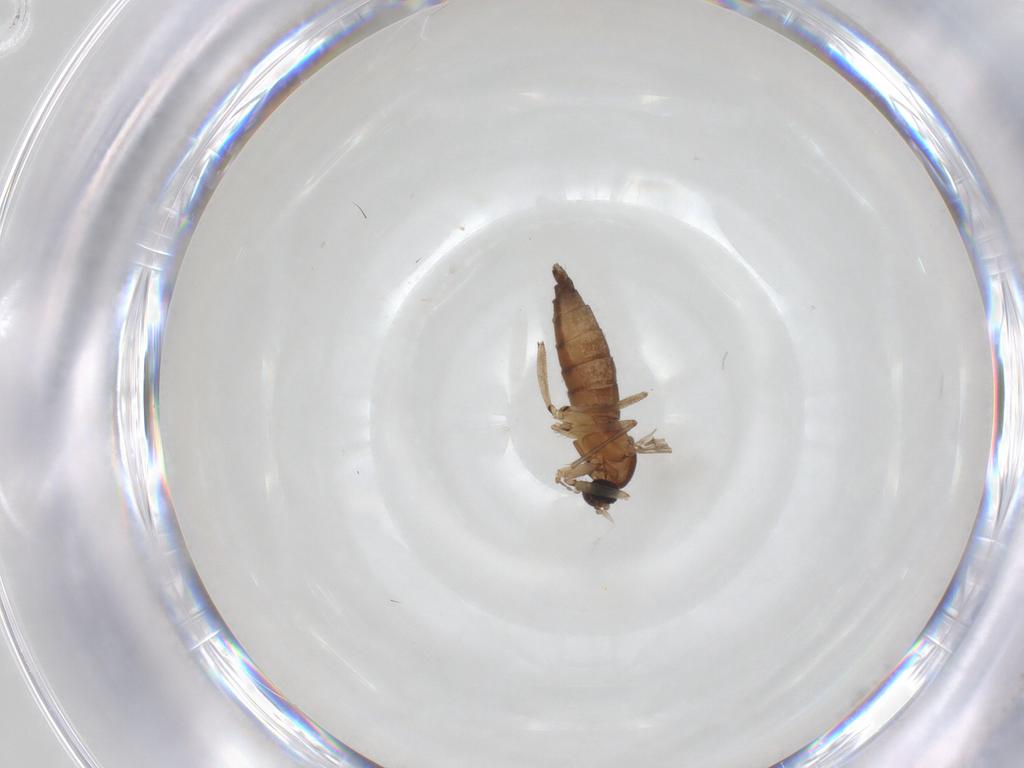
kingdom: Animalia
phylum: Arthropoda
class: Insecta
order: Diptera
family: Sciaridae
